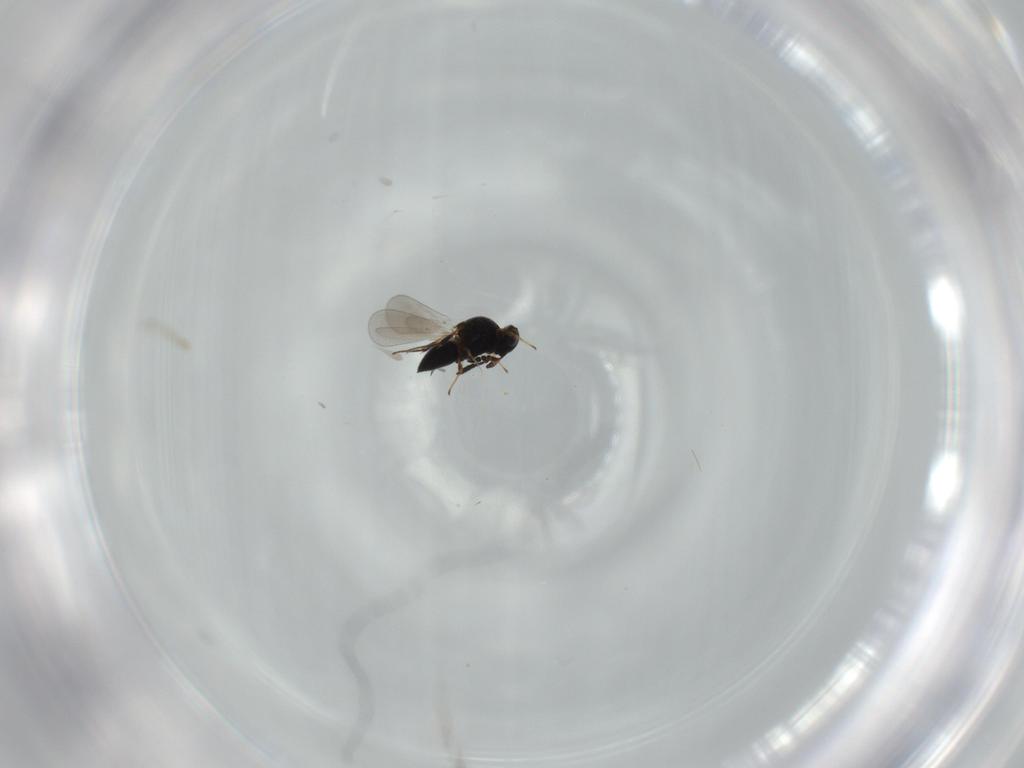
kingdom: Animalia
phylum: Arthropoda
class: Insecta
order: Hymenoptera
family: Platygastridae
